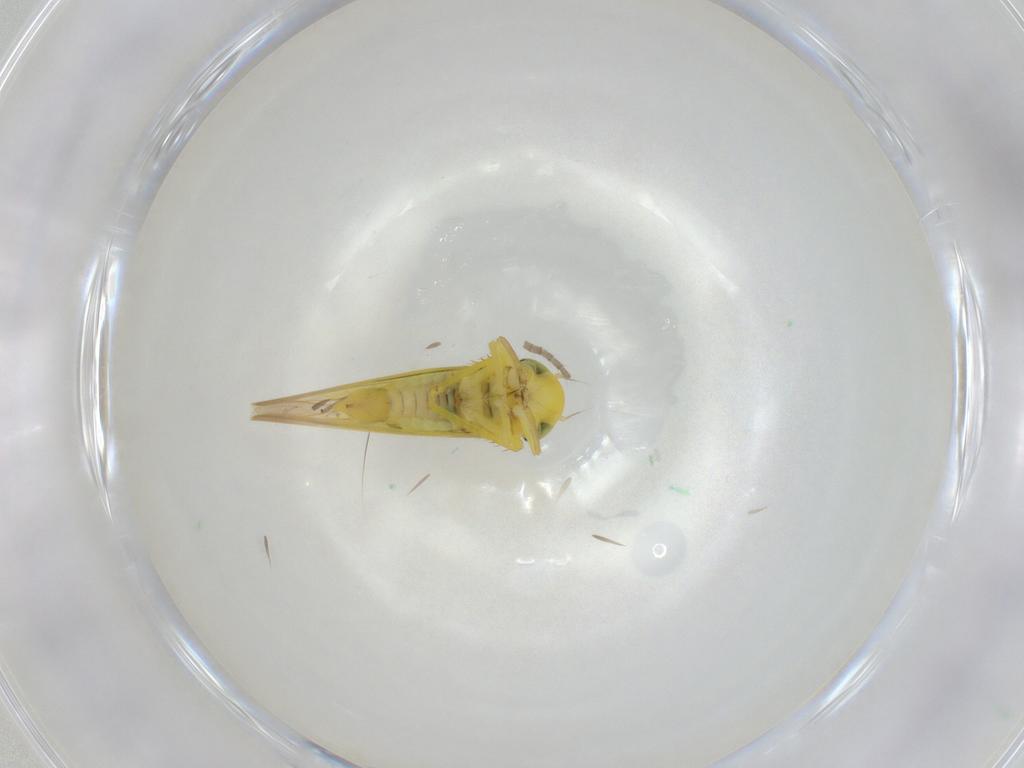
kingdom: Animalia
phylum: Arthropoda
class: Insecta
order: Hemiptera
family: Cicadellidae
